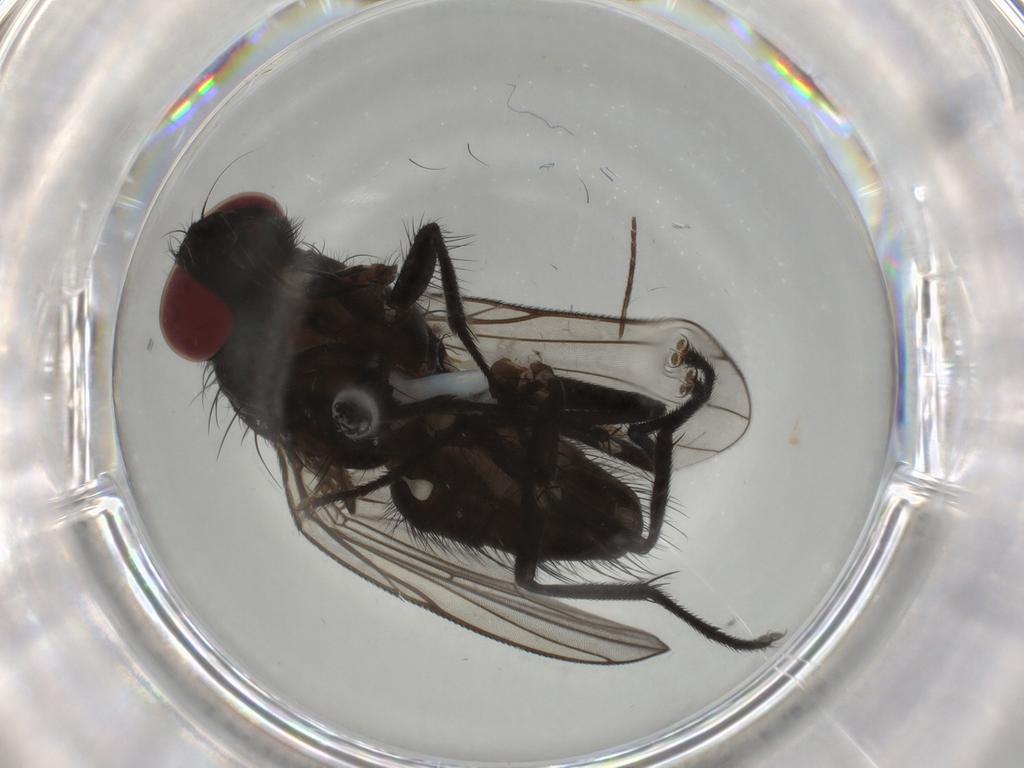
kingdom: Animalia
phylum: Arthropoda
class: Insecta
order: Diptera
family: Muscidae
